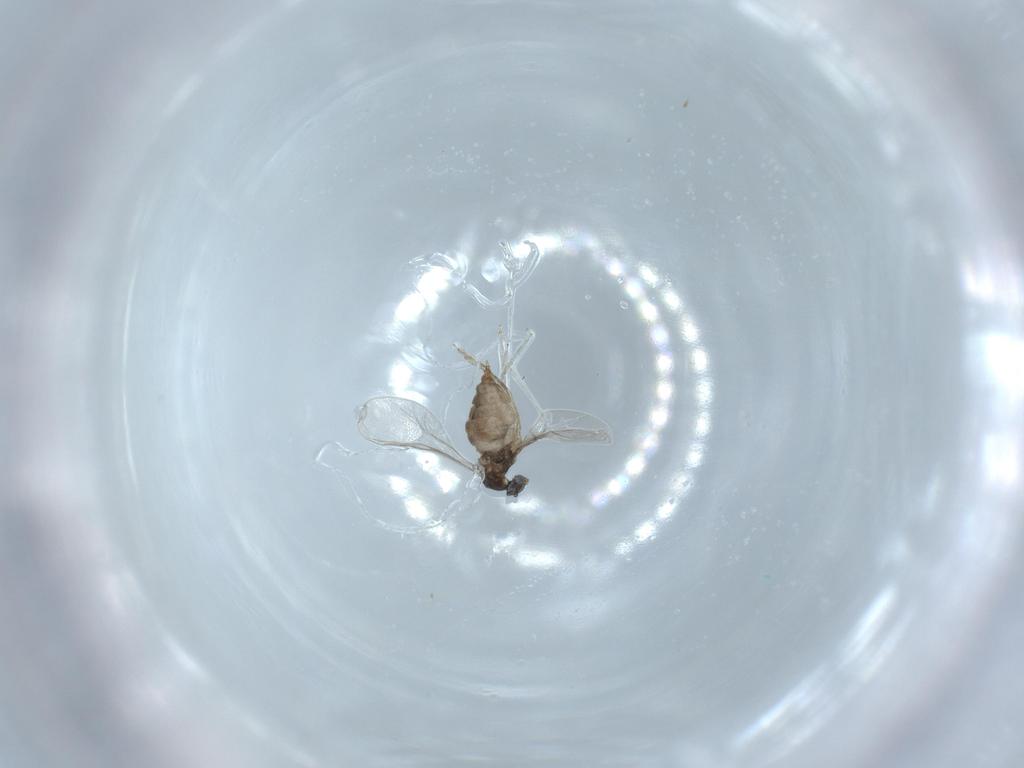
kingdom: Animalia
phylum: Arthropoda
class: Insecta
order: Diptera
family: Cecidomyiidae
